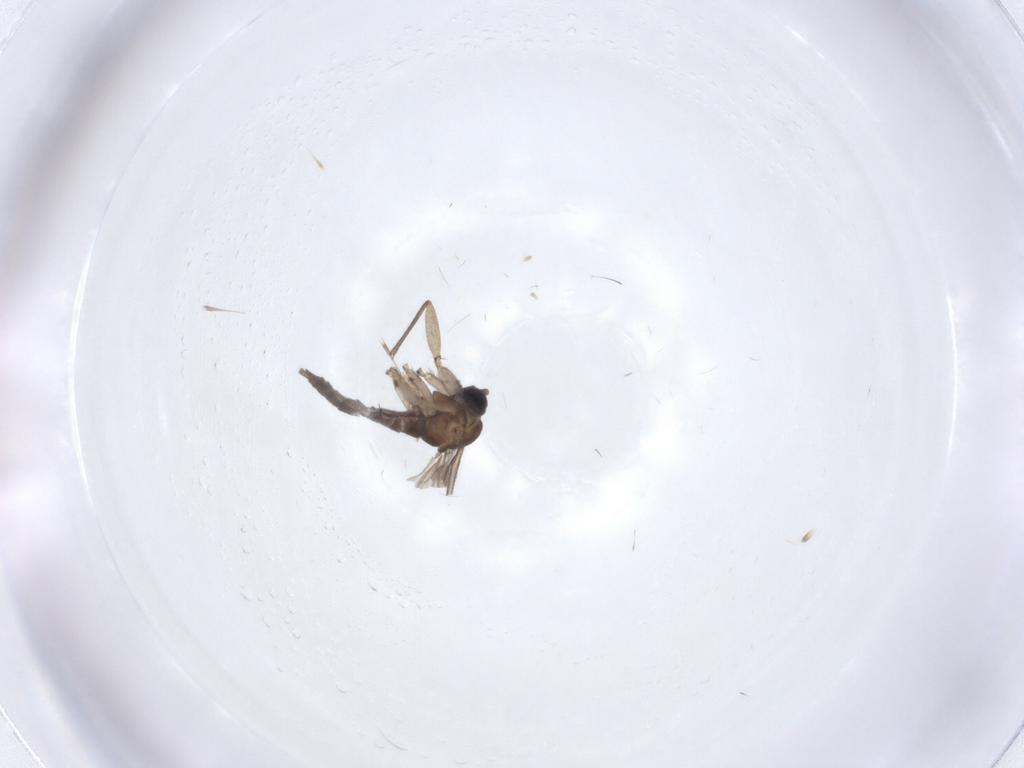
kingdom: Animalia
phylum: Arthropoda
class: Insecta
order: Diptera
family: Sciaridae
